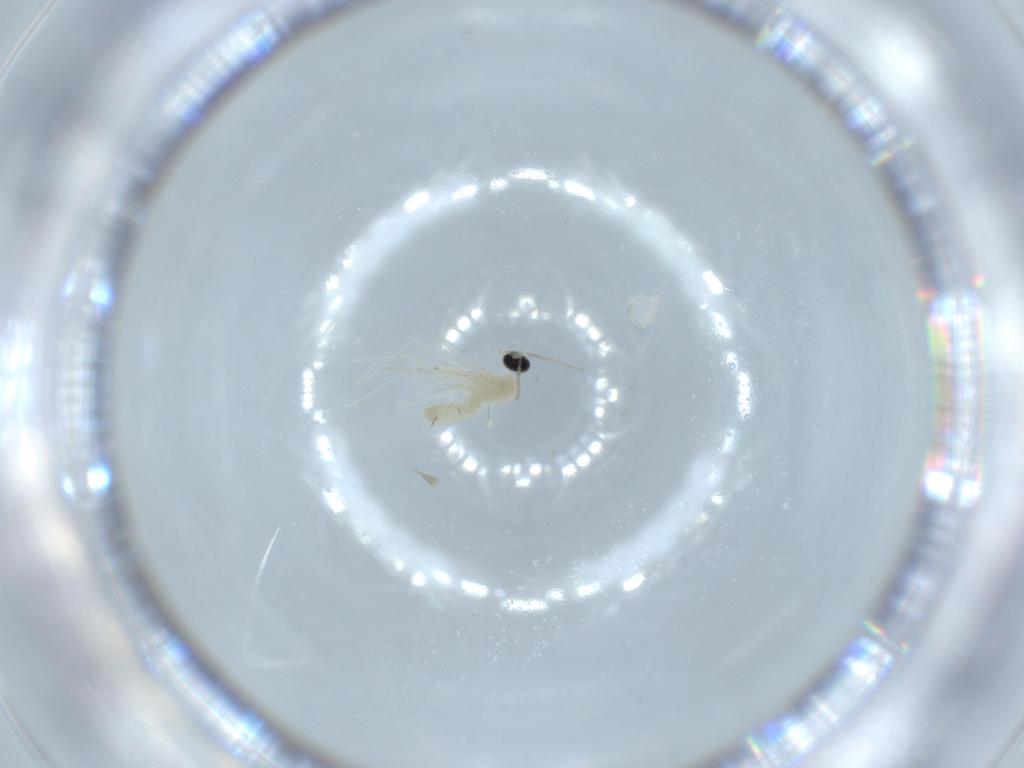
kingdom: Animalia
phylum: Arthropoda
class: Insecta
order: Diptera
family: Cecidomyiidae
